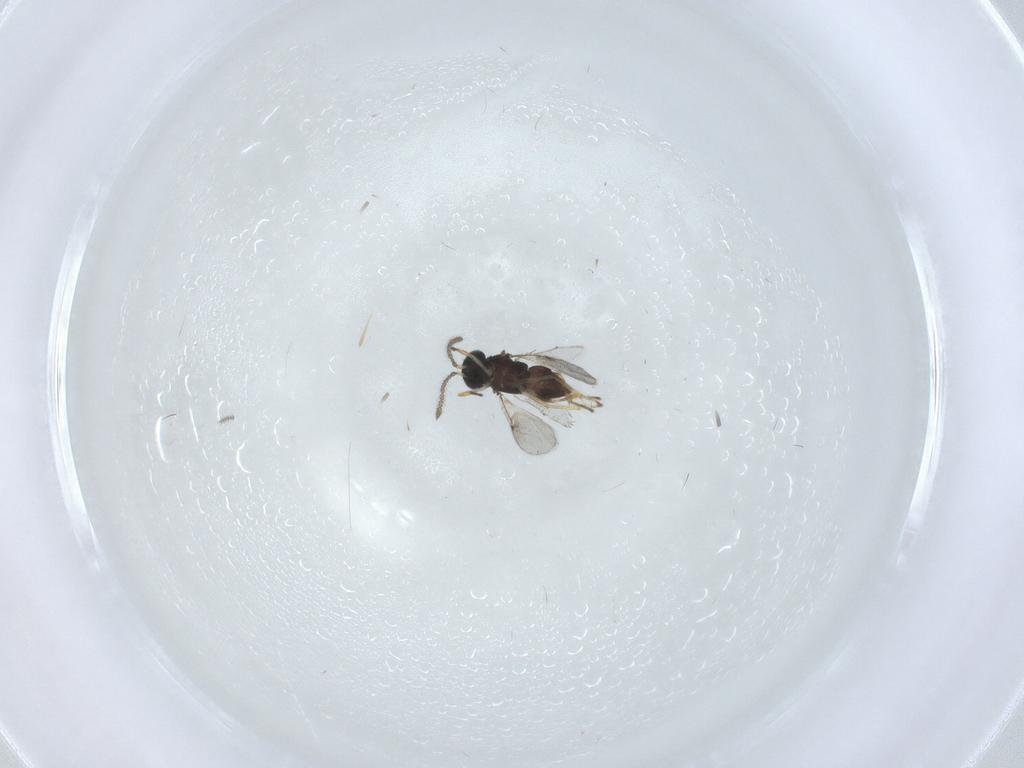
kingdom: Animalia
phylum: Arthropoda
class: Insecta
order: Hymenoptera
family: Encyrtidae
